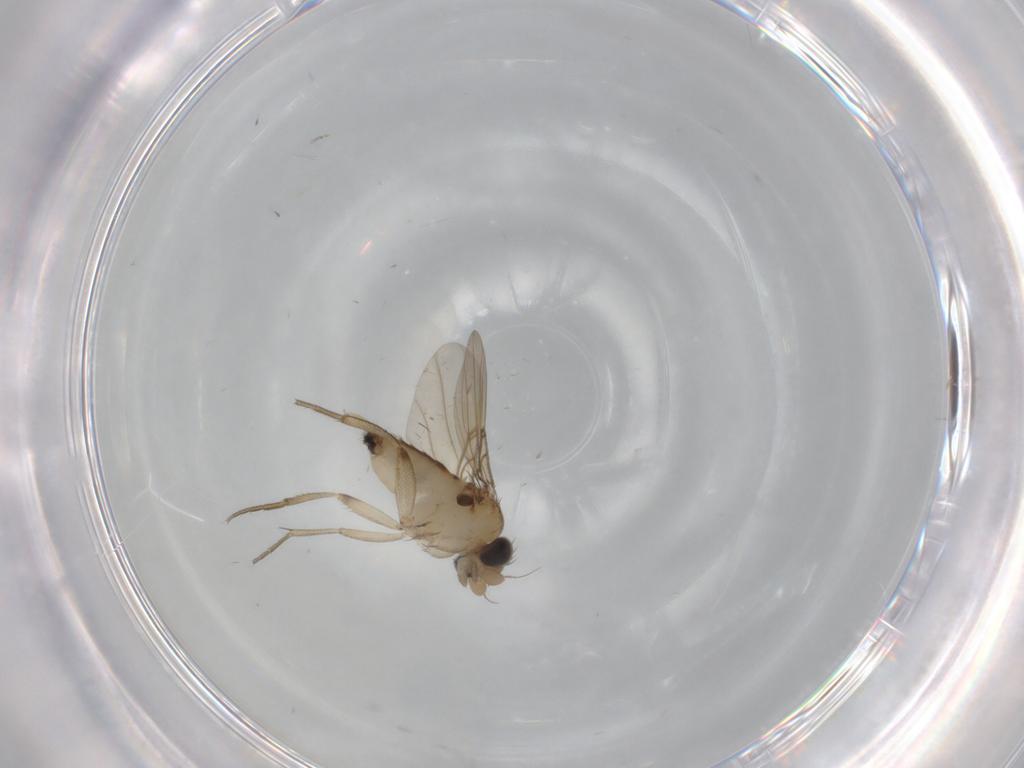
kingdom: Animalia
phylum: Arthropoda
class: Insecta
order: Diptera
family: Phoridae
